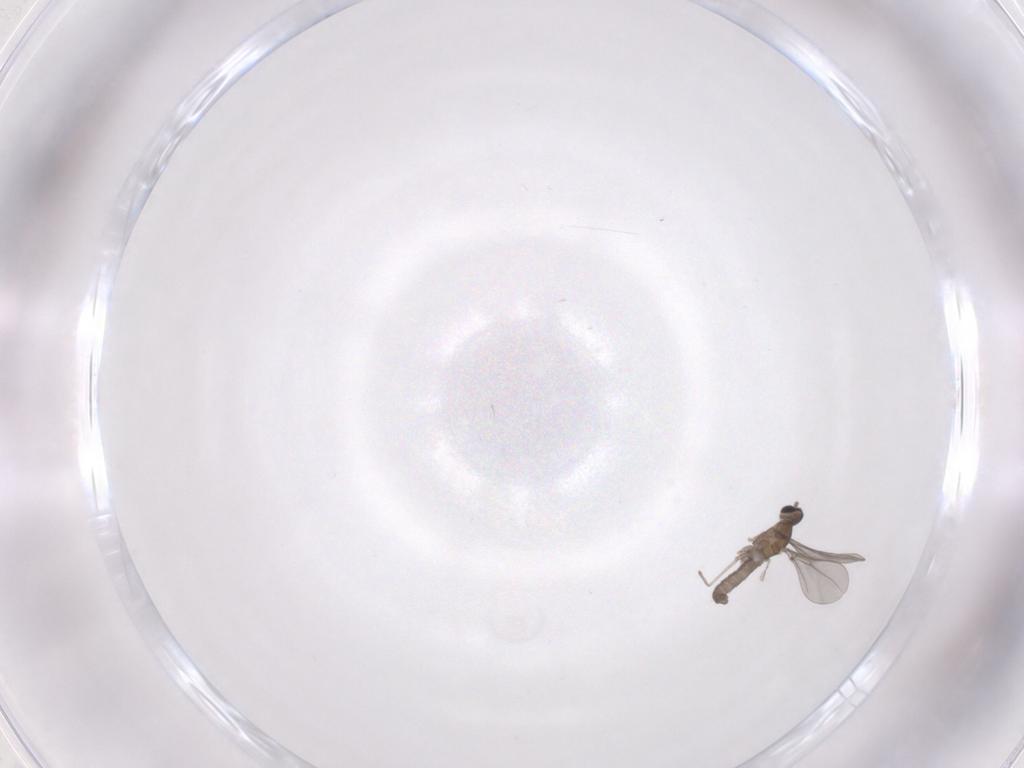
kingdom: Animalia
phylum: Arthropoda
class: Insecta
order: Diptera
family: Cecidomyiidae
